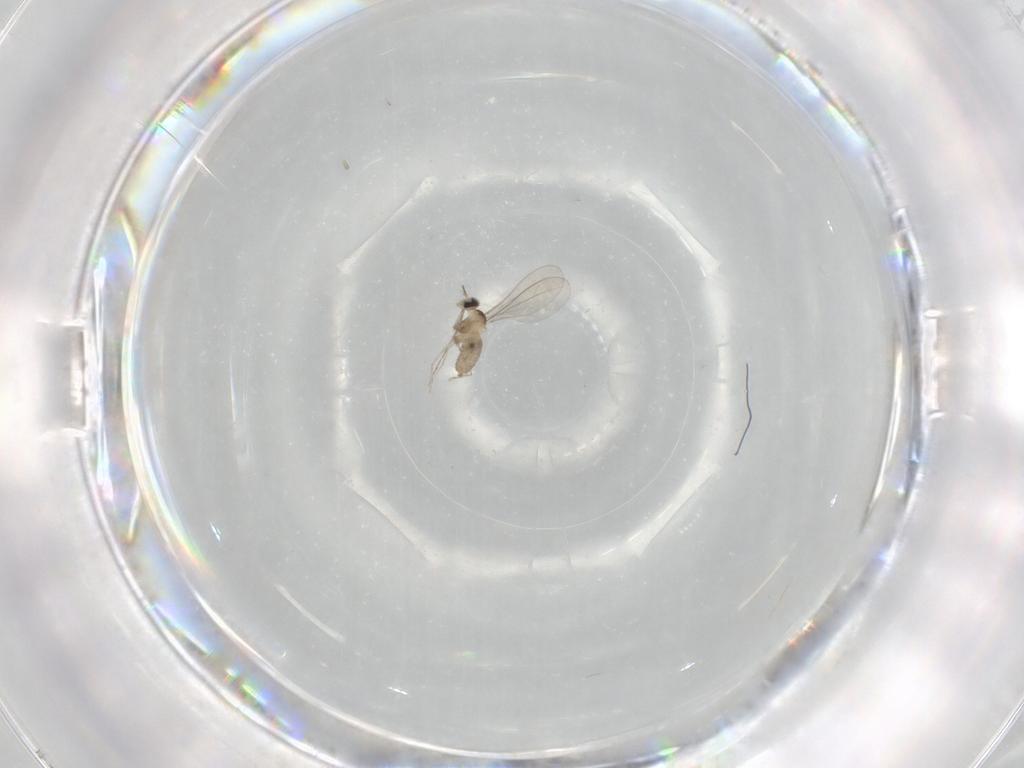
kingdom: Animalia
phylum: Arthropoda
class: Insecta
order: Diptera
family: Cecidomyiidae
